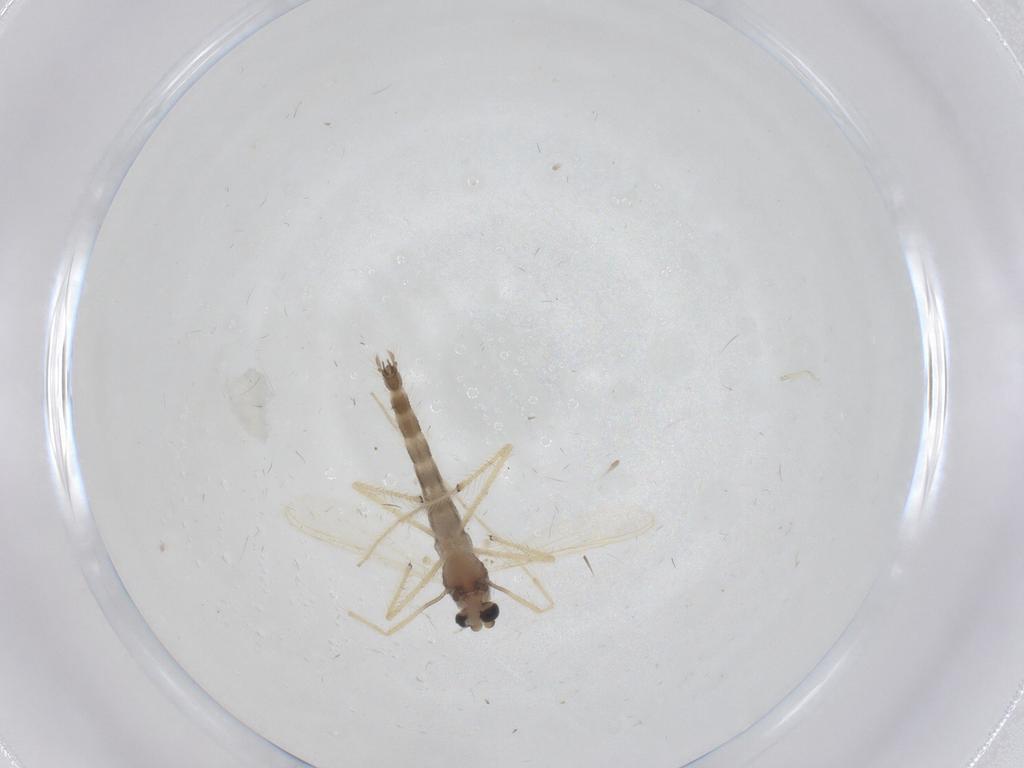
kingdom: Animalia
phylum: Arthropoda
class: Insecta
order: Diptera
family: Chironomidae
